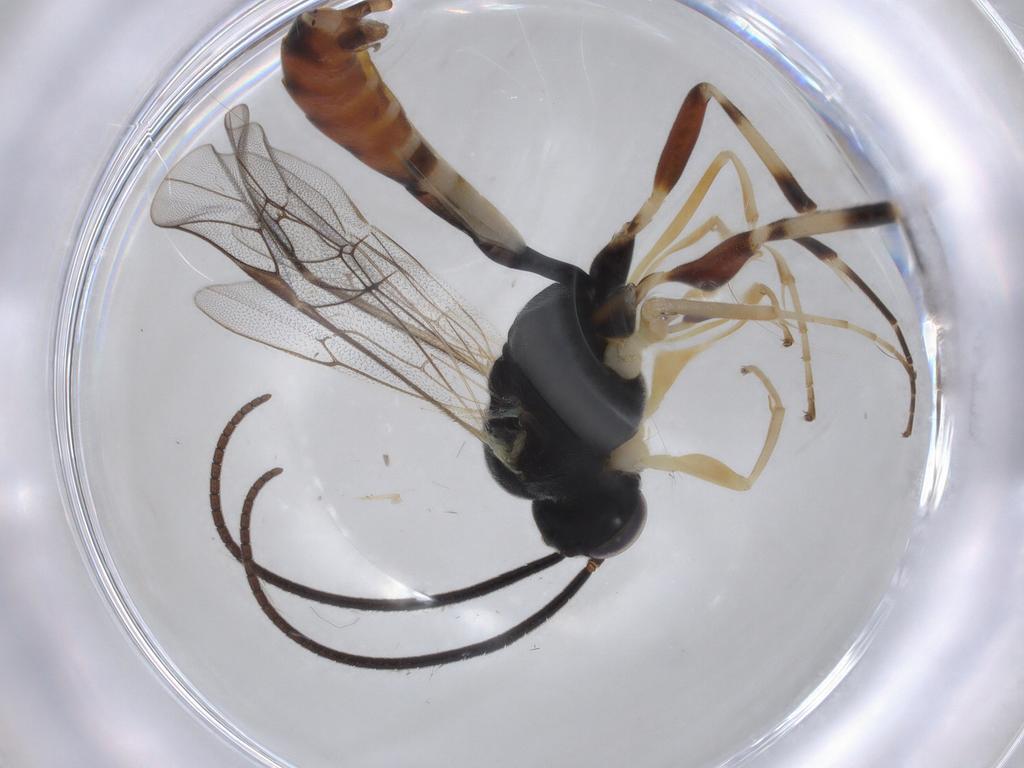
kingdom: Animalia
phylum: Arthropoda
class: Insecta
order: Hymenoptera
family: Ichneumonidae
